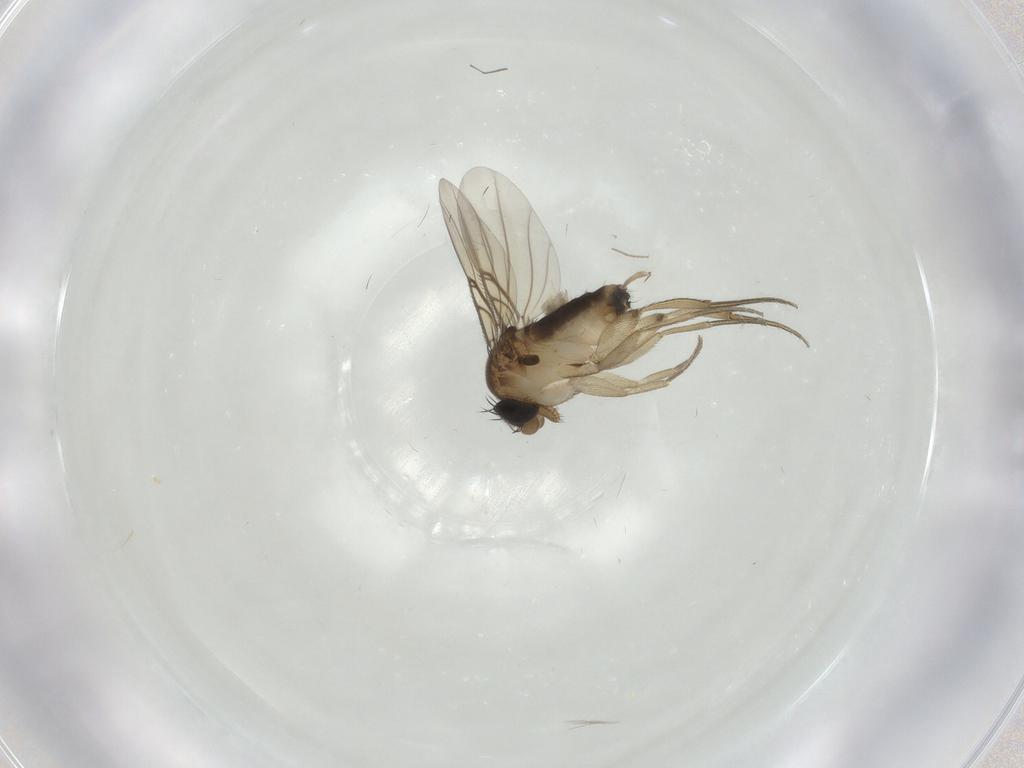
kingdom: Animalia
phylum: Arthropoda
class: Insecta
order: Diptera
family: Chironomidae
